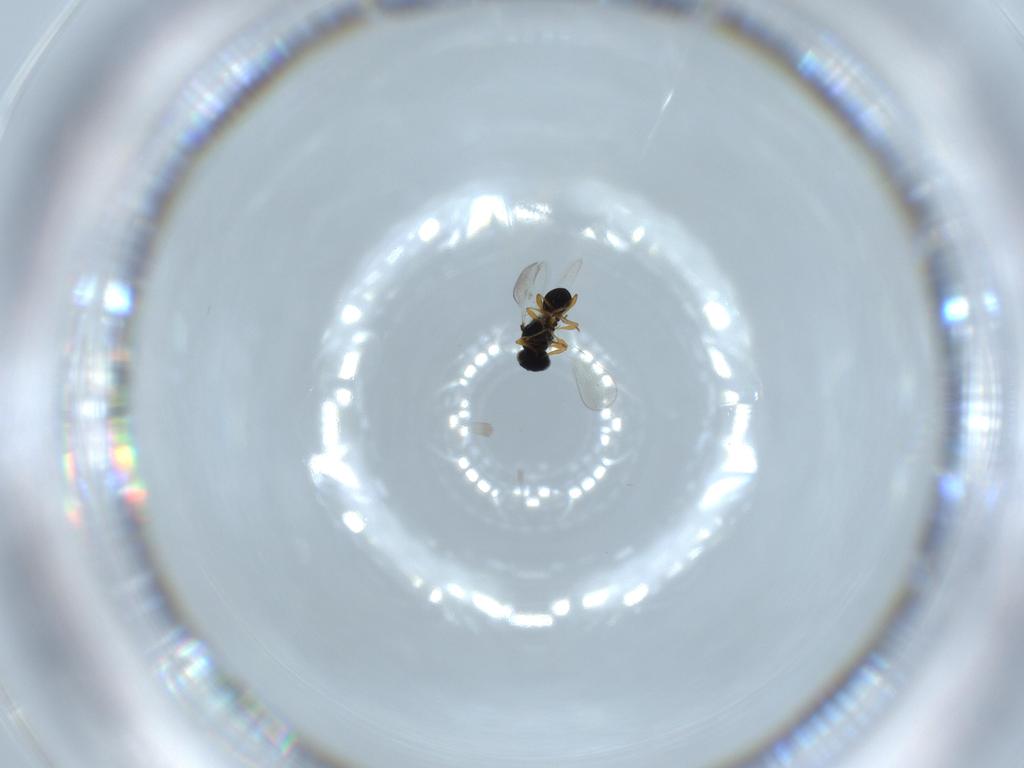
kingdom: Animalia
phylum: Arthropoda
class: Insecta
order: Hymenoptera
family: Platygastridae
